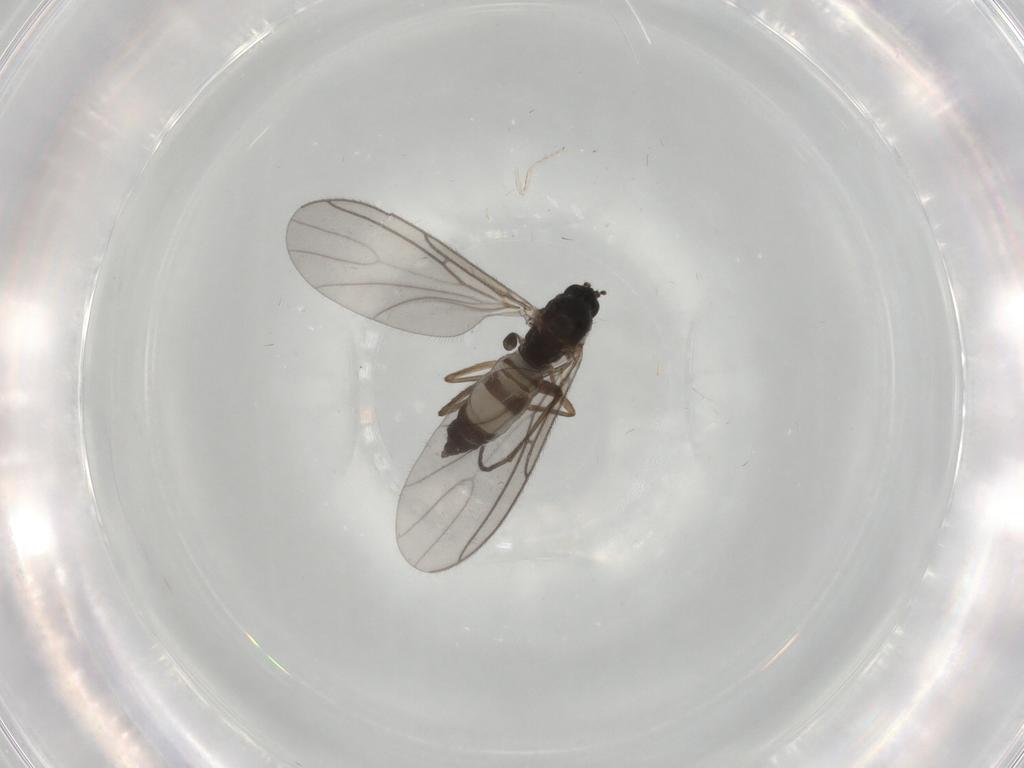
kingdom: Animalia
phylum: Arthropoda
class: Insecta
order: Diptera
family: Sciaridae
